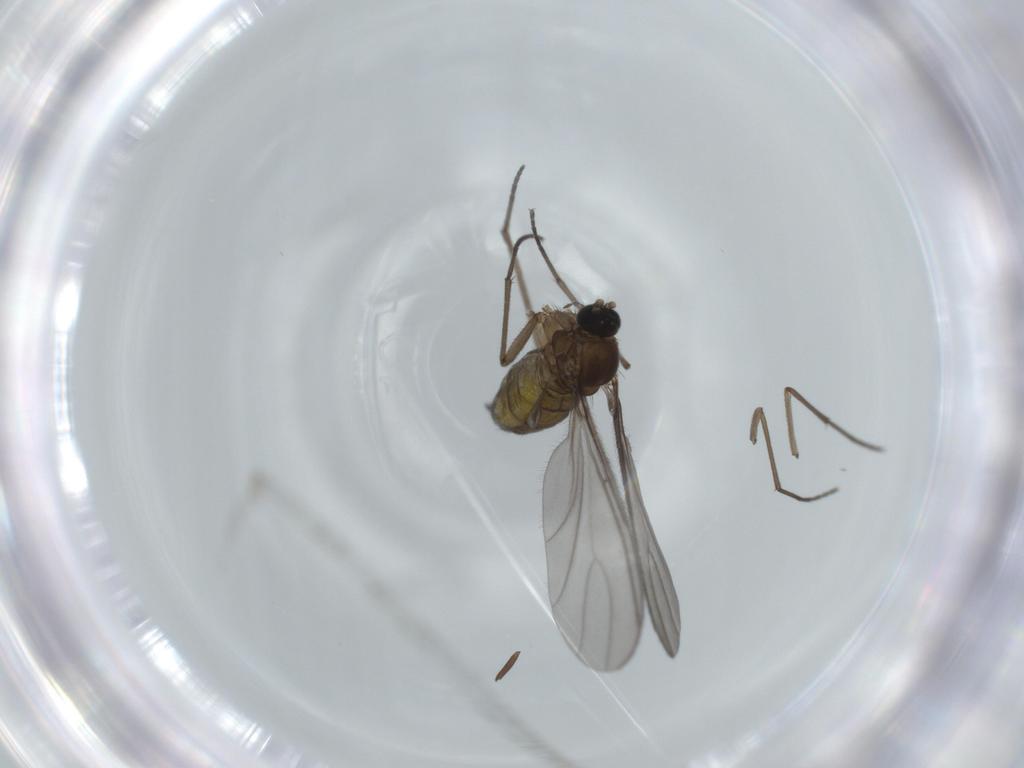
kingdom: Animalia
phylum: Arthropoda
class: Insecta
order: Diptera
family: Sciaridae
